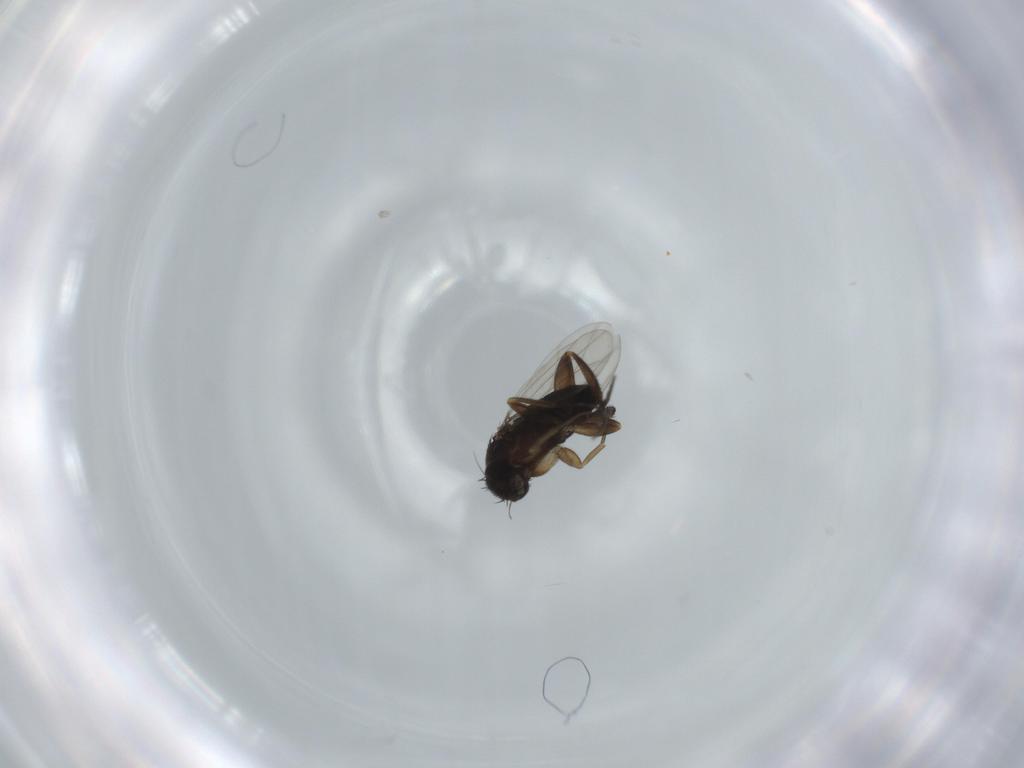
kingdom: Animalia
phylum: Arthropoda
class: Insecta
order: Diptera
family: Phoridae
